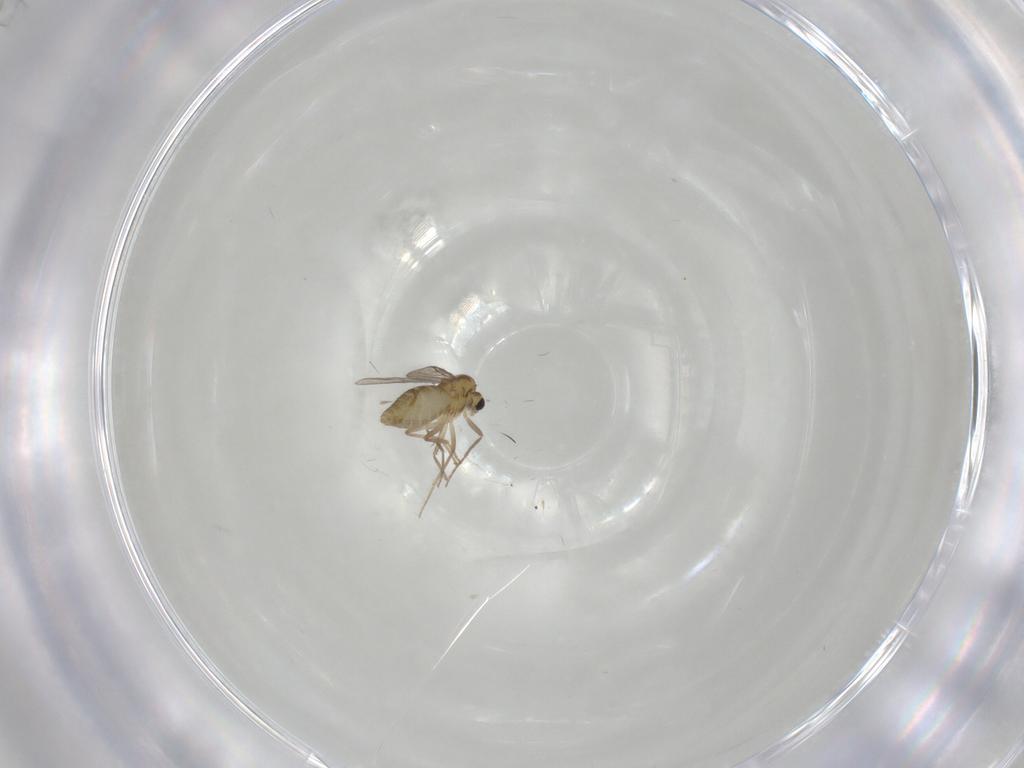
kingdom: Animalia
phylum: Arthropoda
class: Insecta
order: Diptera
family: Chironomidae
